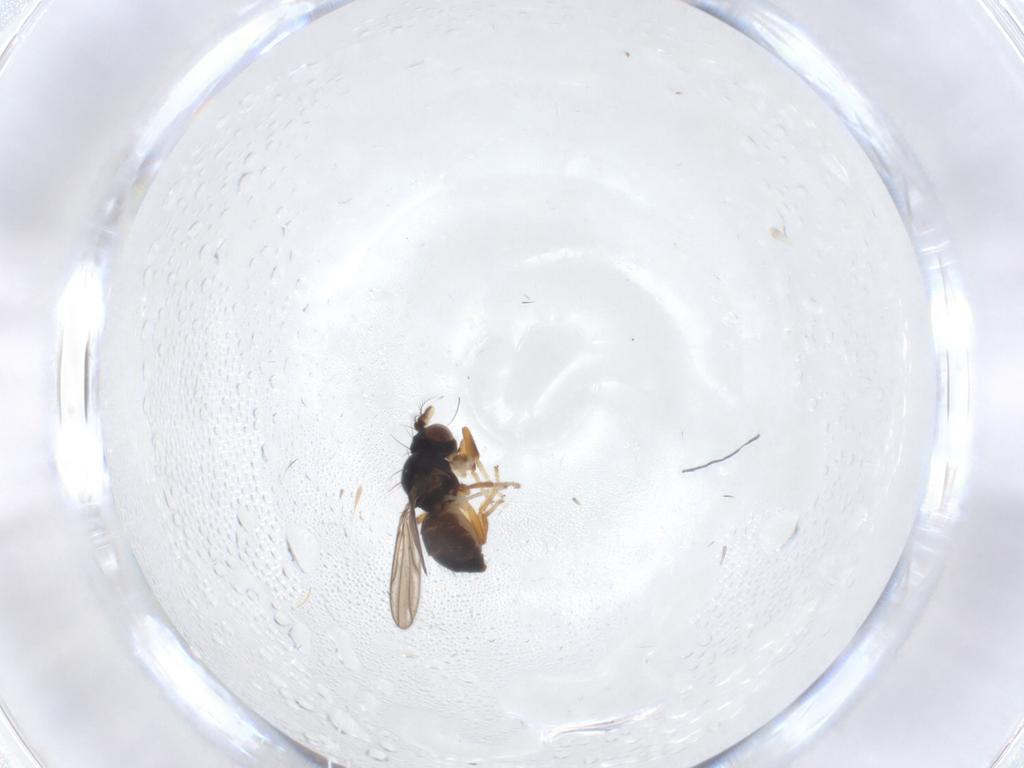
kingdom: Animalia
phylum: Arthropoda
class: Insecta
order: Diptera
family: Ephydridae
